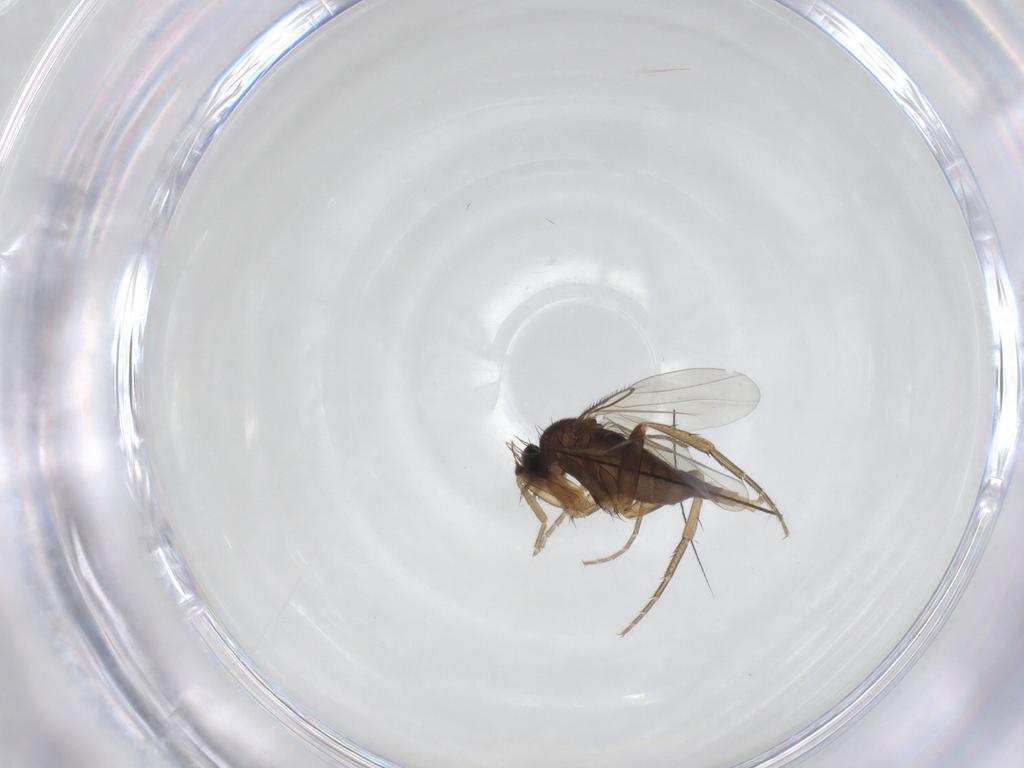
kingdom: Animalia
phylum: Arthropoda
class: Insecta
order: Diptera
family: Phoridae
